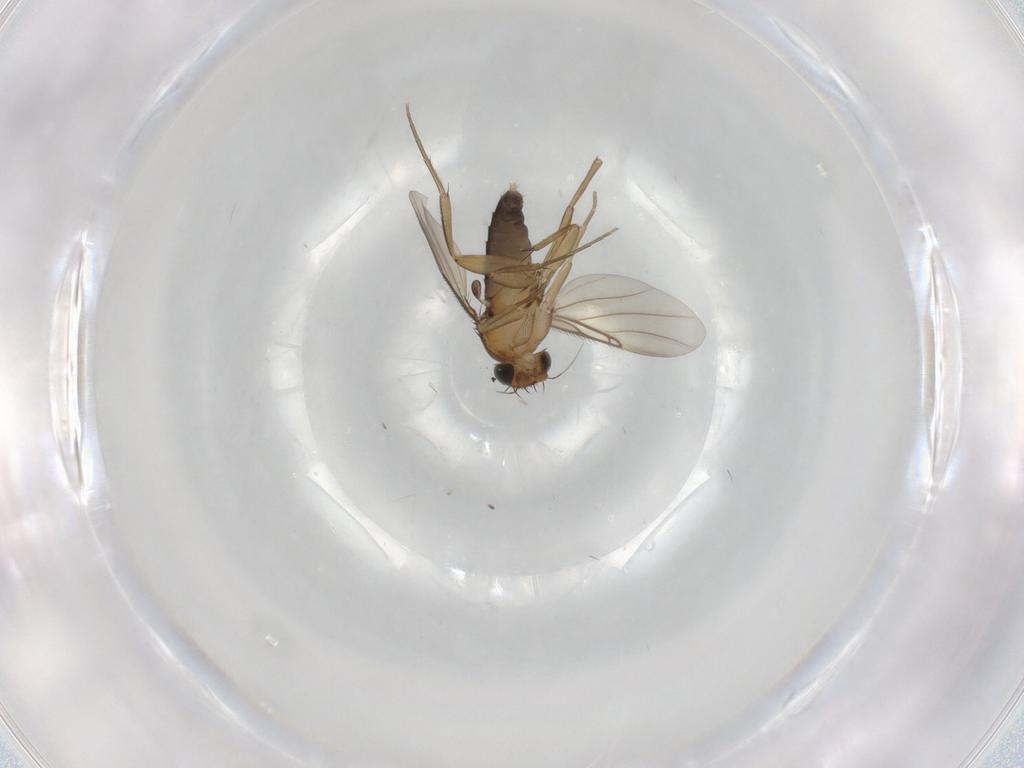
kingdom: Animalia
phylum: Arthropoda
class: Insecta
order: Diptera
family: Phoridae
